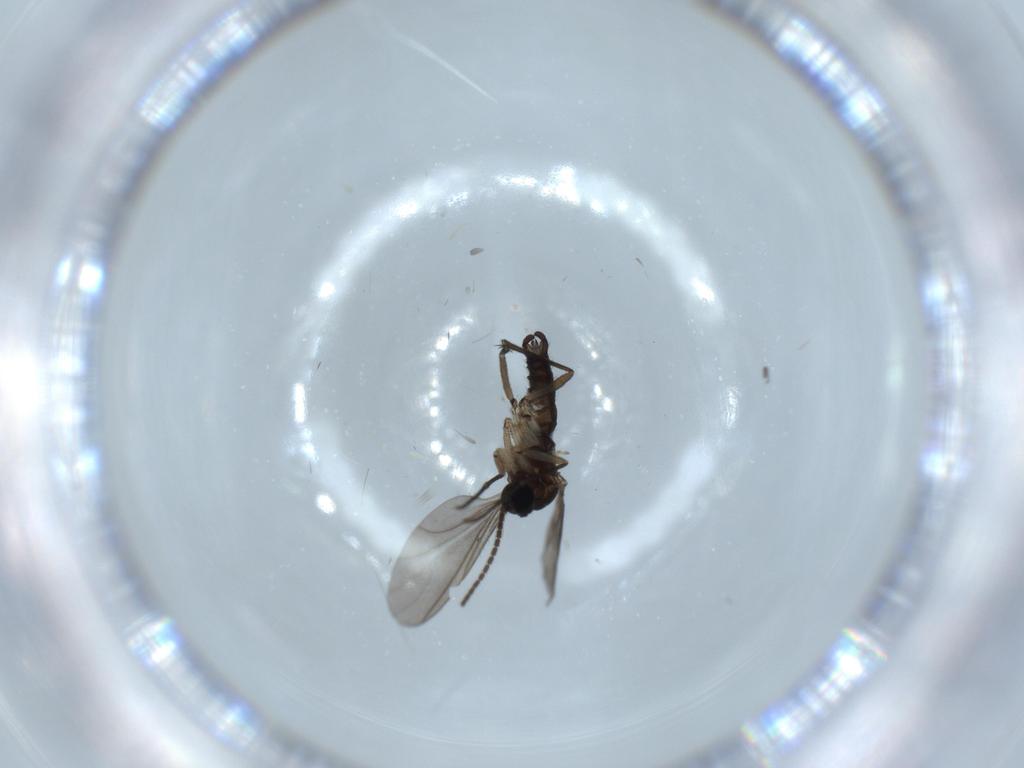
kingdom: Animalia
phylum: Arthropoda
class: Insecta
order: Diptera
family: Sciaridae
